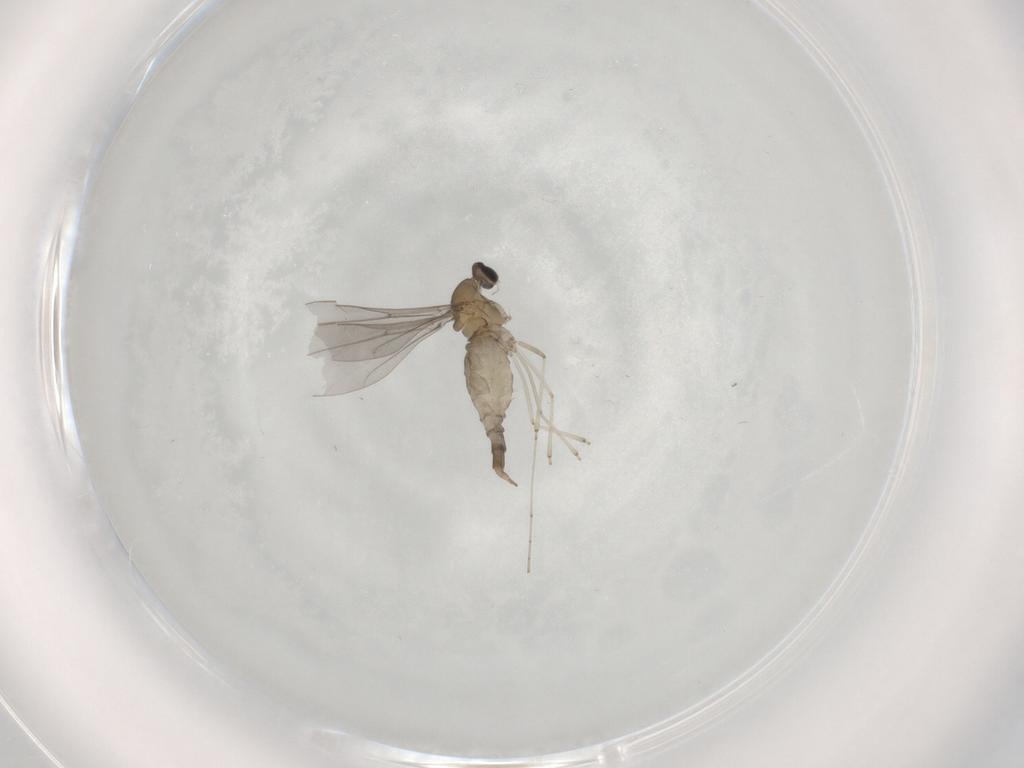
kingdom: Animalia
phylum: Arthropoda
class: Insecta
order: Diptera
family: Cecidomyiidae
